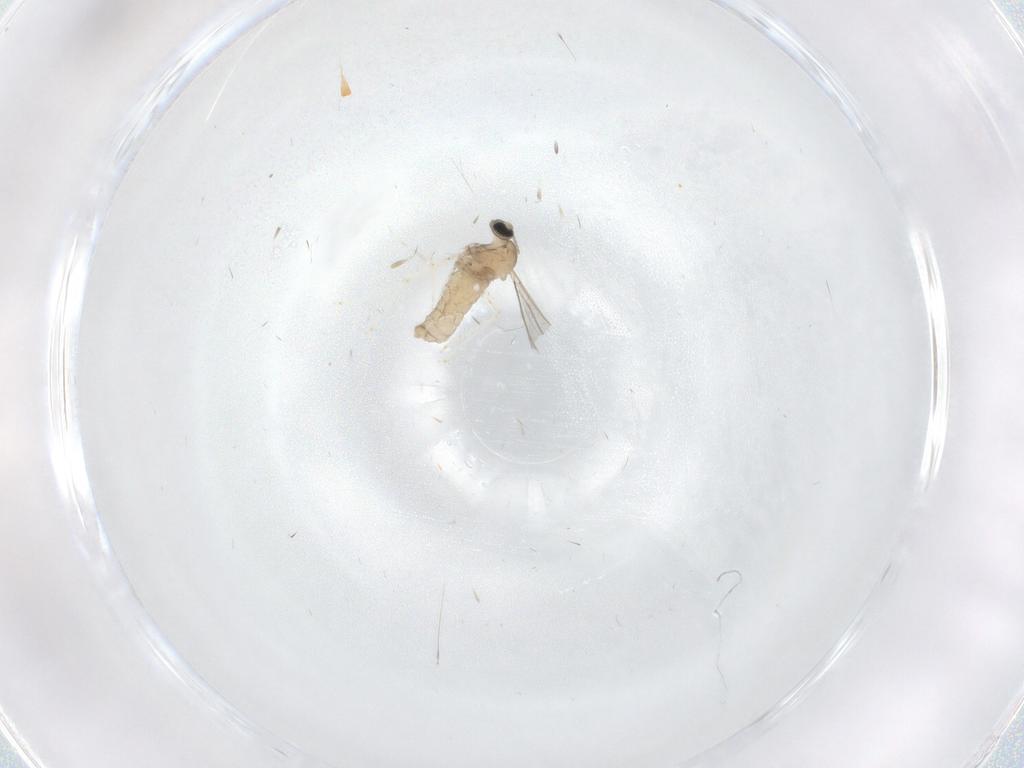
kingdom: Animalia
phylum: Arthropoda
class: Insecta
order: Diptera
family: Cecidomyiidae
